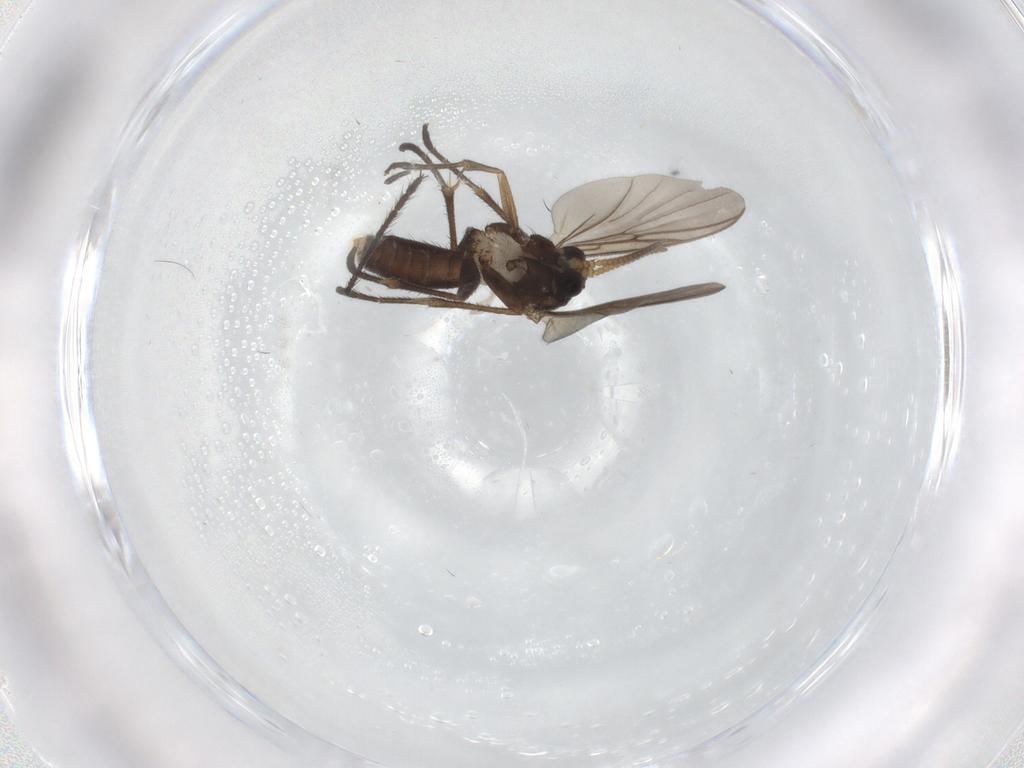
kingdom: Animalia
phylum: Arthropoda
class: Insecta
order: Diptera
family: Limoniidae
